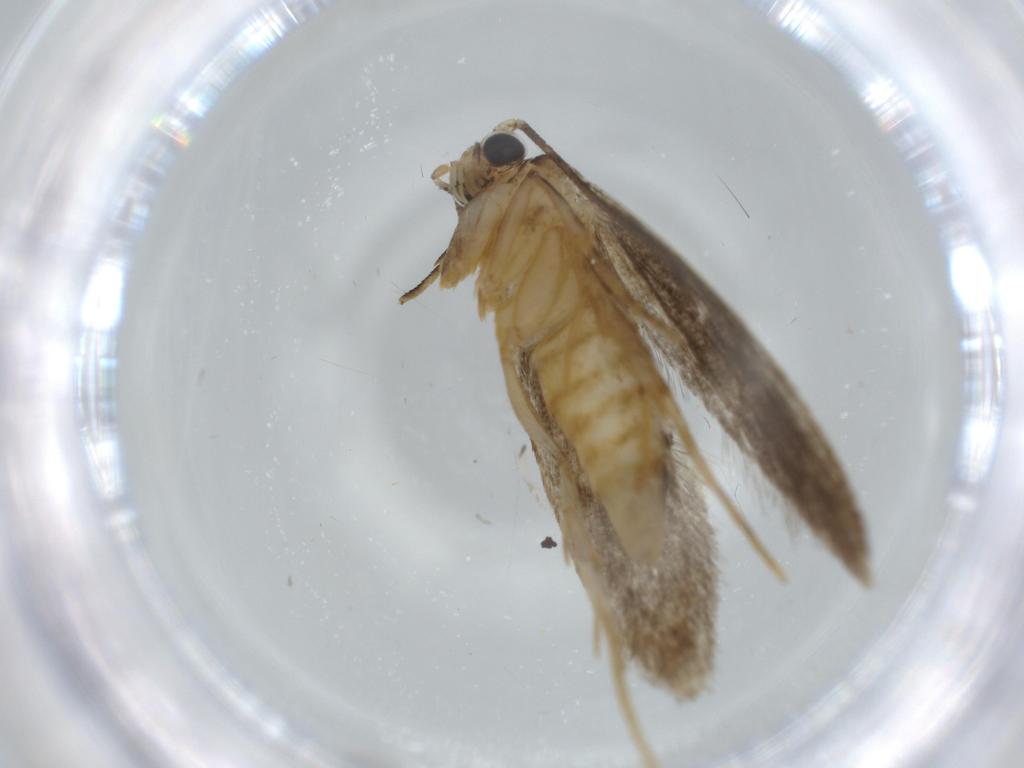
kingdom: Animalia
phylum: Arthropoda
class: Insecta
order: Lepidoptera
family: Tineidae
